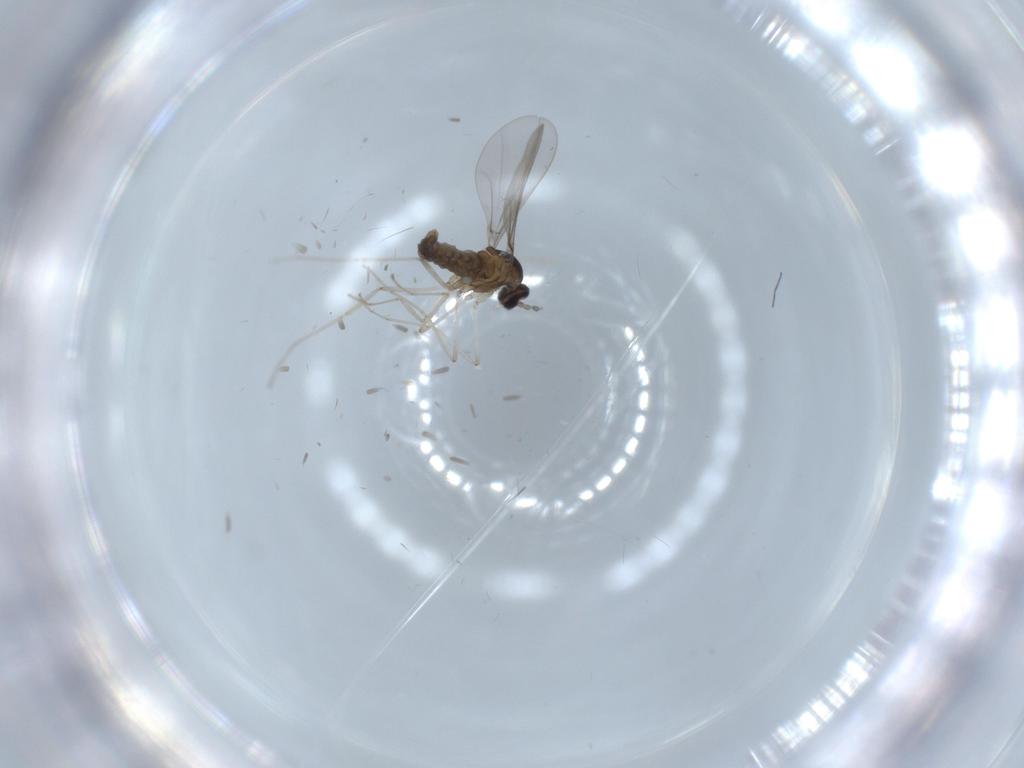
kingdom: Animalia
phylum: Arthropoda
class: Insecta
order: Diptera
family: Cecidomyiidae
